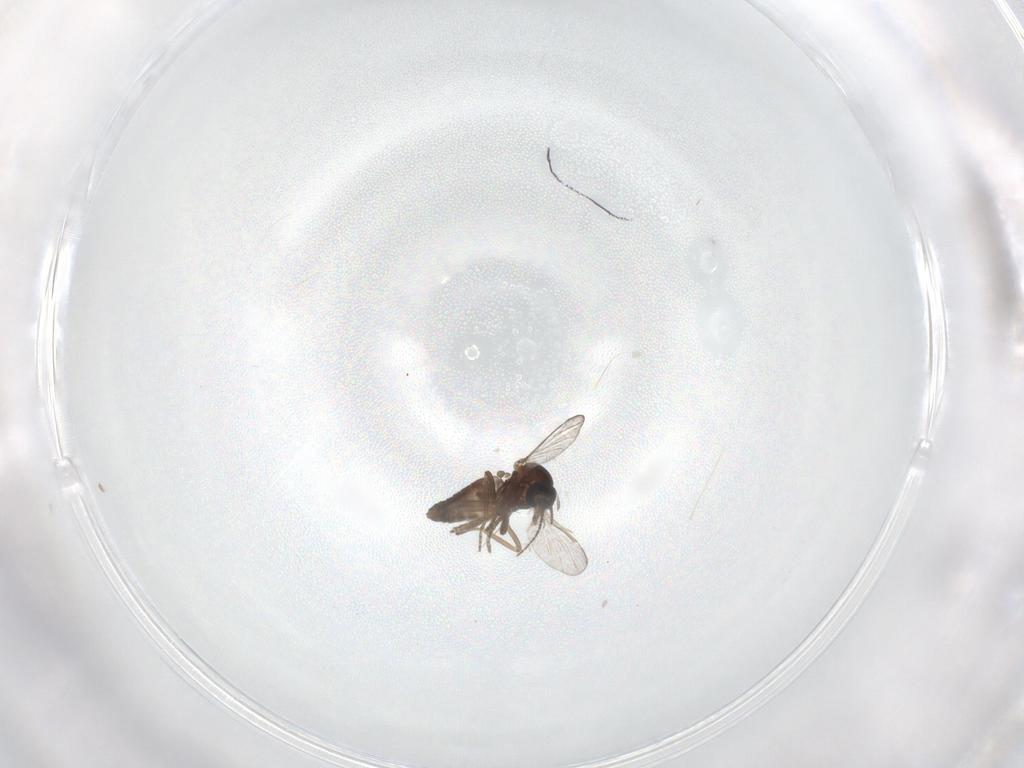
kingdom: Animalia
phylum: Arthropoda
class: Insecta
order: Diptera
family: Ceratopogonidae
